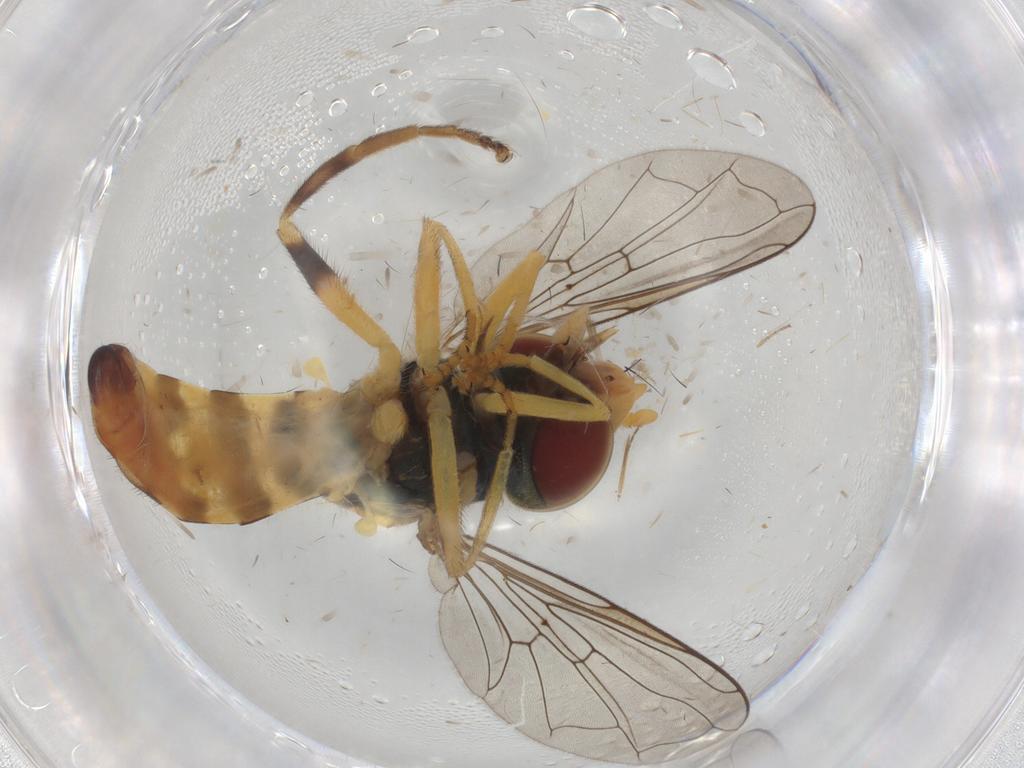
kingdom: Animalia
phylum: Arthropoda
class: Insecta
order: Diptera
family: Syrphidae
